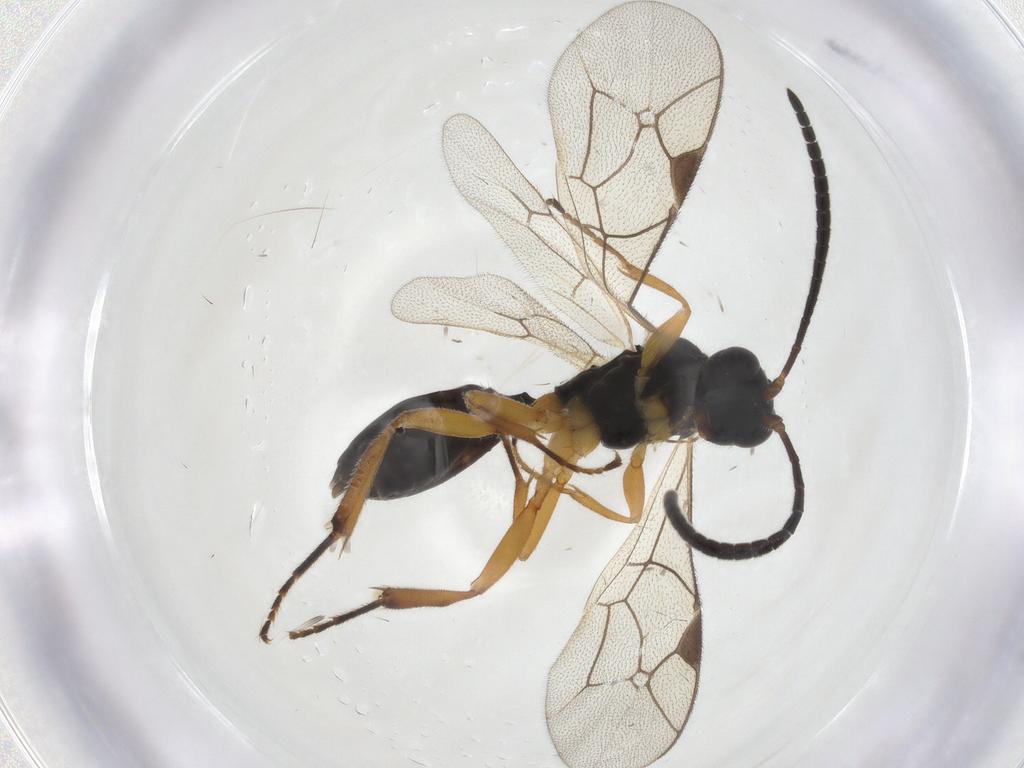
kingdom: Animalia
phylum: Arthropoda
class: Insecta
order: Hymenoptera
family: Ichneumonidae
